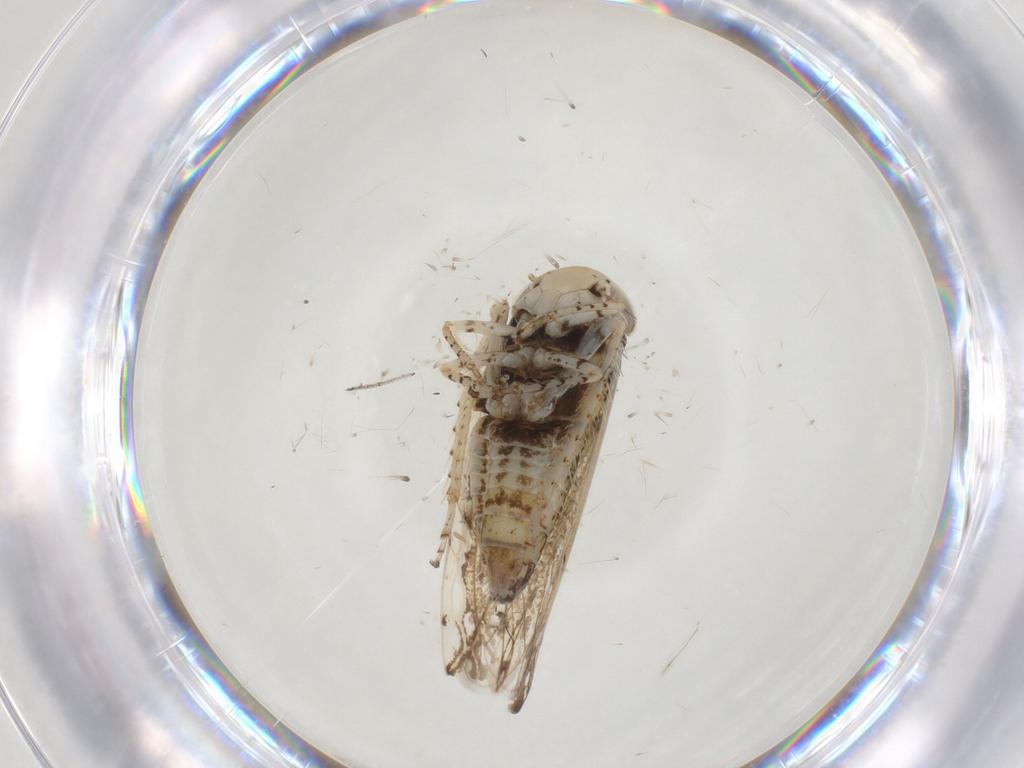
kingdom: Animalia
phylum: Arthropoda
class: Insecta
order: Hemiptera
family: Cicadellidae
